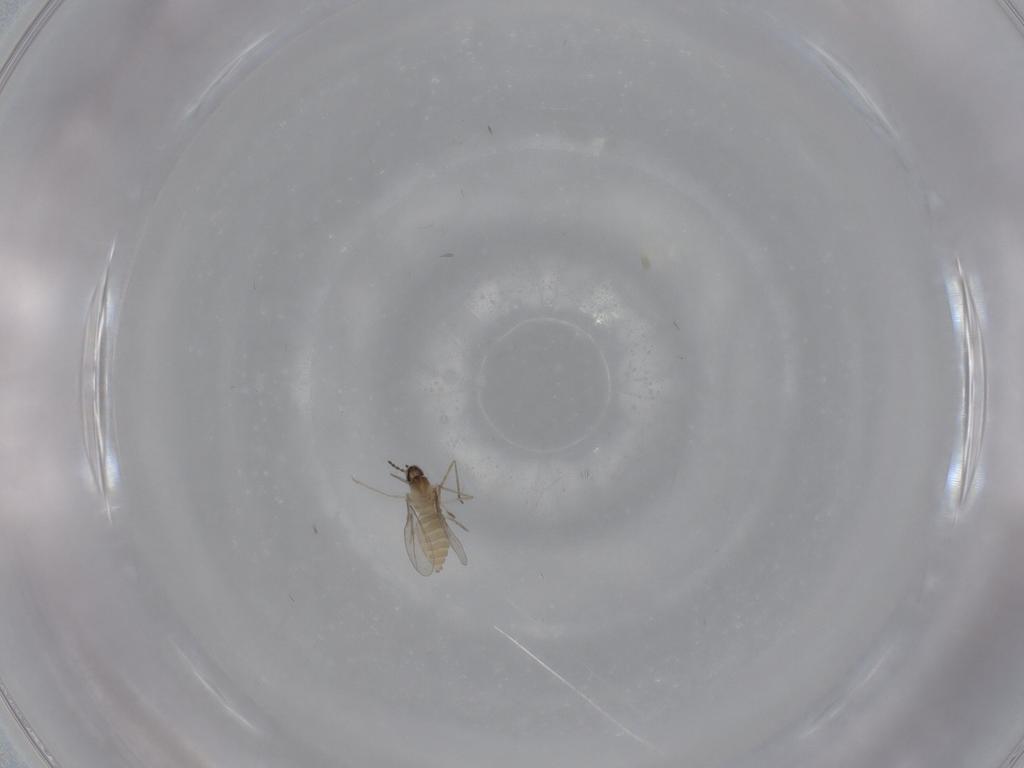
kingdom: Animalia
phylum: Arthropoda
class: Insecta
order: Diptera
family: Cecidomyiidae
